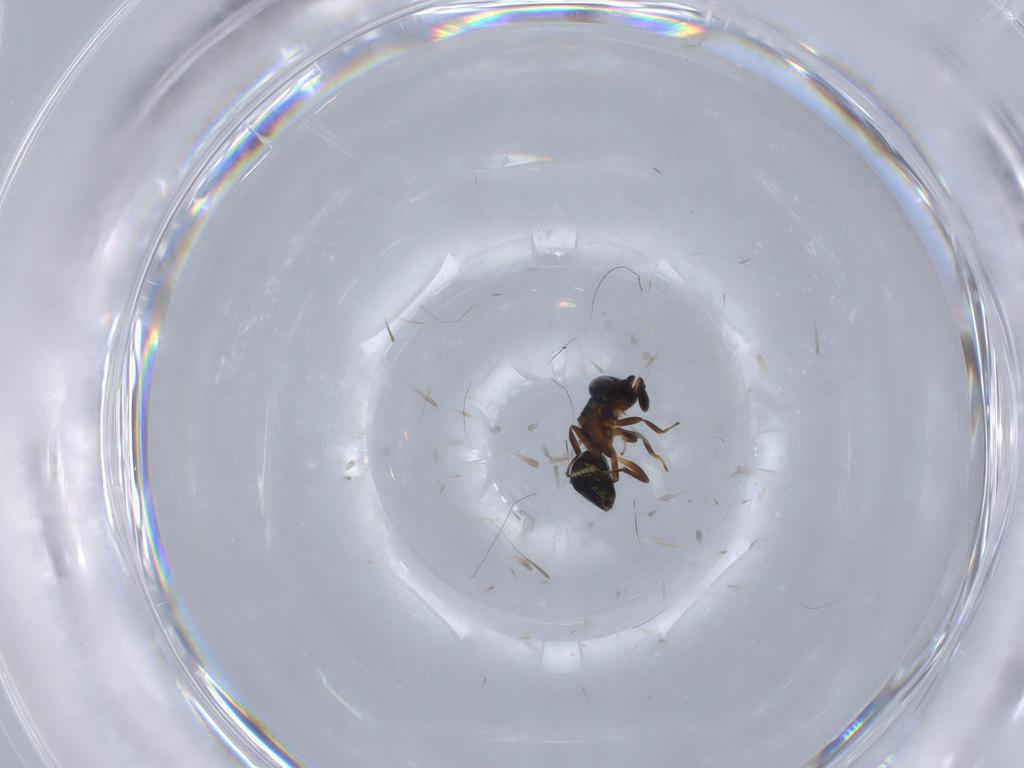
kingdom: Animalia
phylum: Arthropoda
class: Insecta
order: Hymenoptera
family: Encyrtidae
